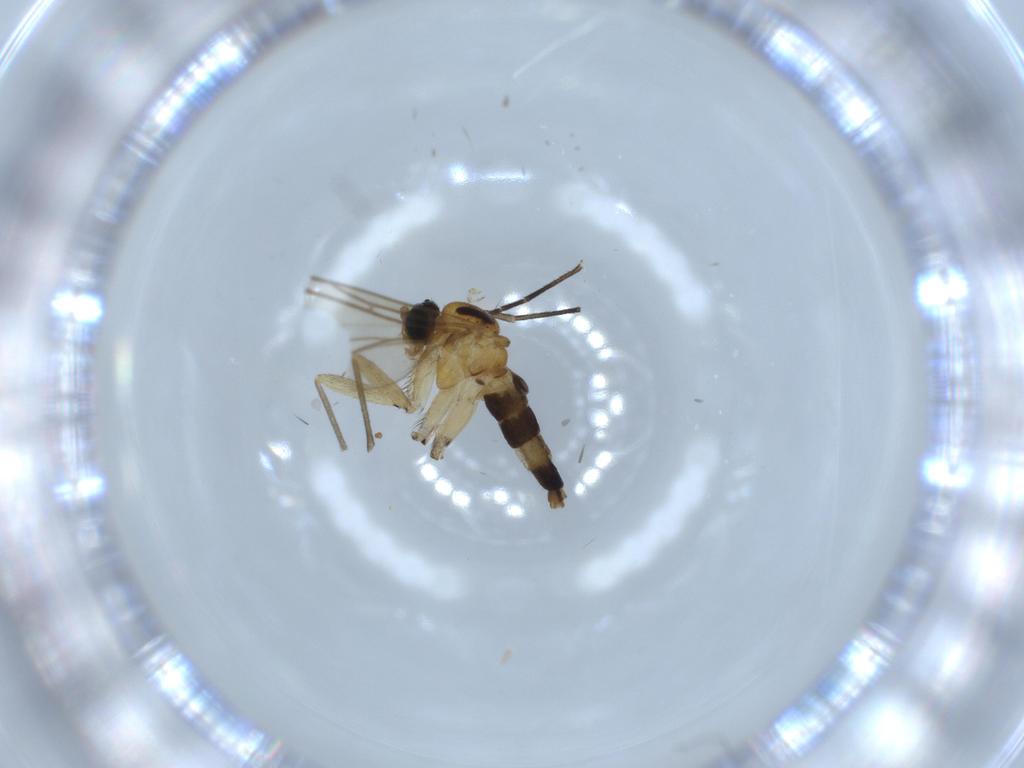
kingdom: Animalia
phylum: Arthropoda
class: Insecta
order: Diptera
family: Sciaridae
